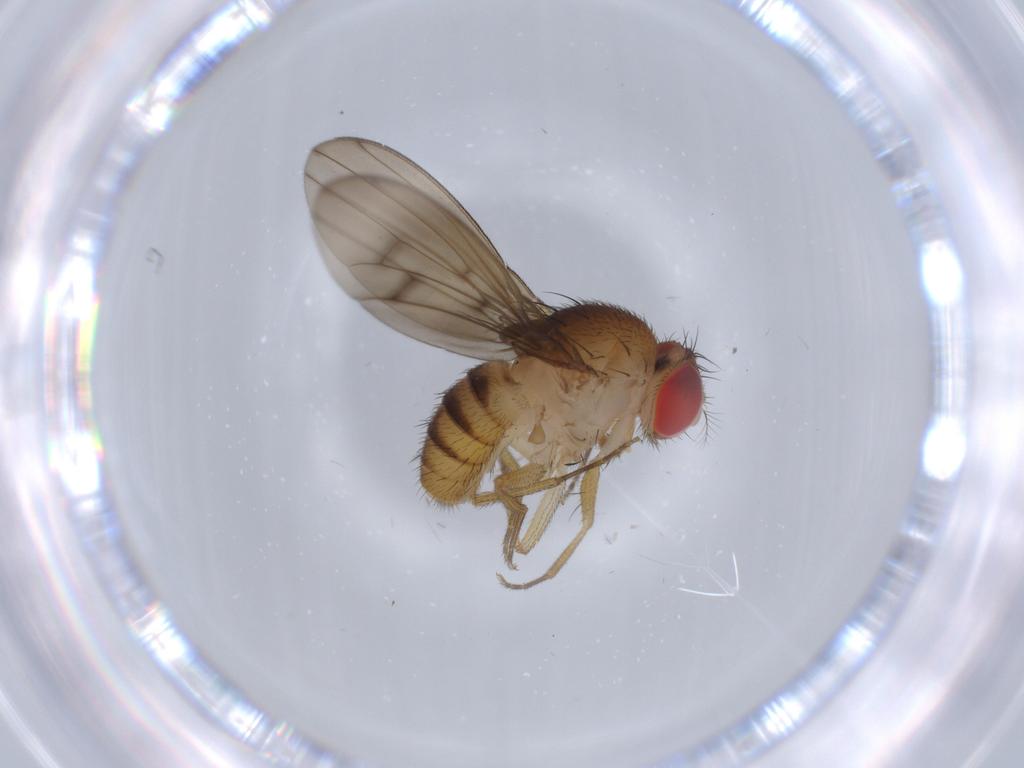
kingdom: Animalia
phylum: Arthropoda
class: Insecta
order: Diptera
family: Drosophilidae
